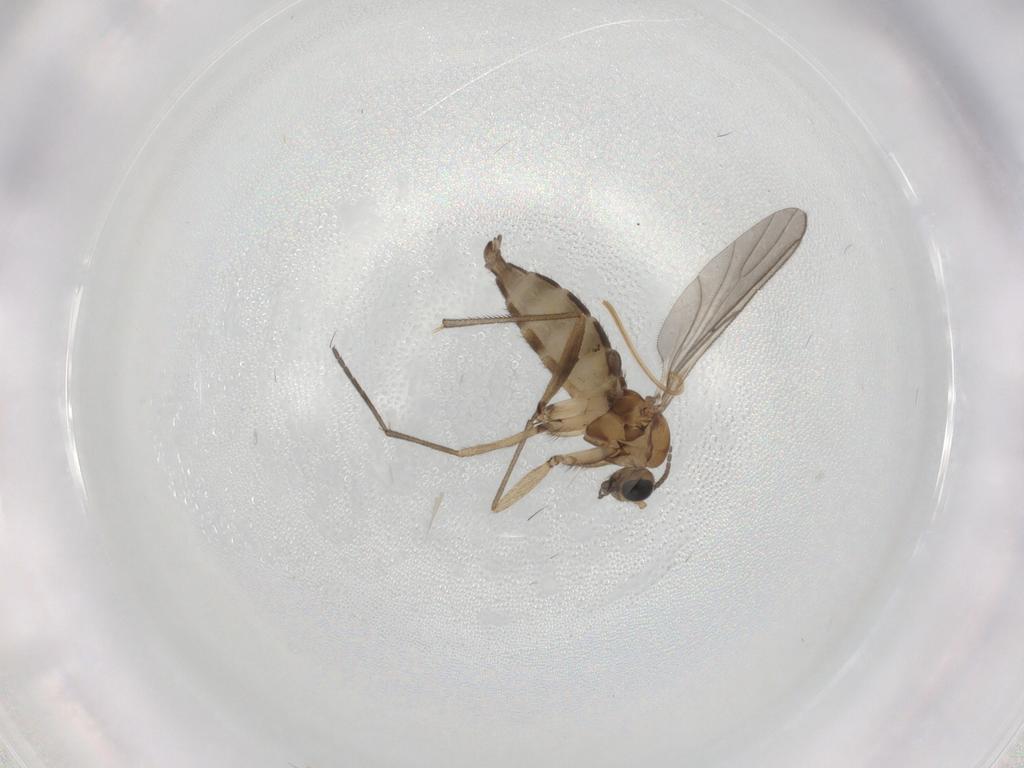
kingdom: Animalia
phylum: Arthropoda
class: Insecta
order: Diptera
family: Sciaridae
